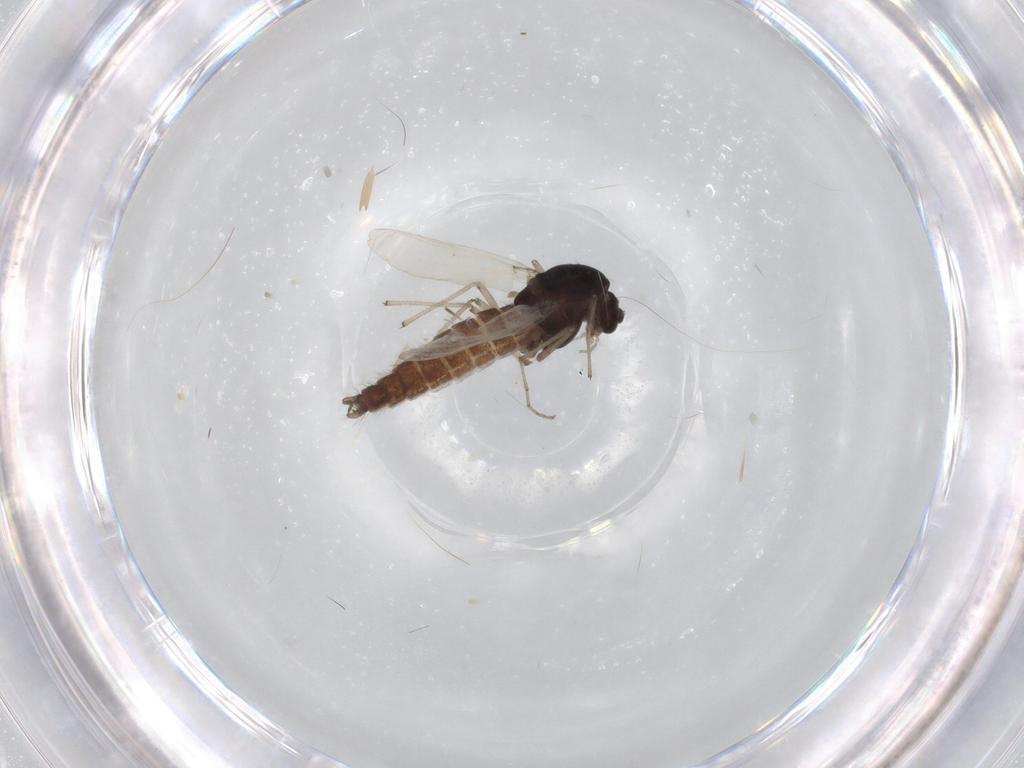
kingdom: Animalia
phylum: Arthropoda
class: Insecta
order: Diptera
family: Chironomidae
